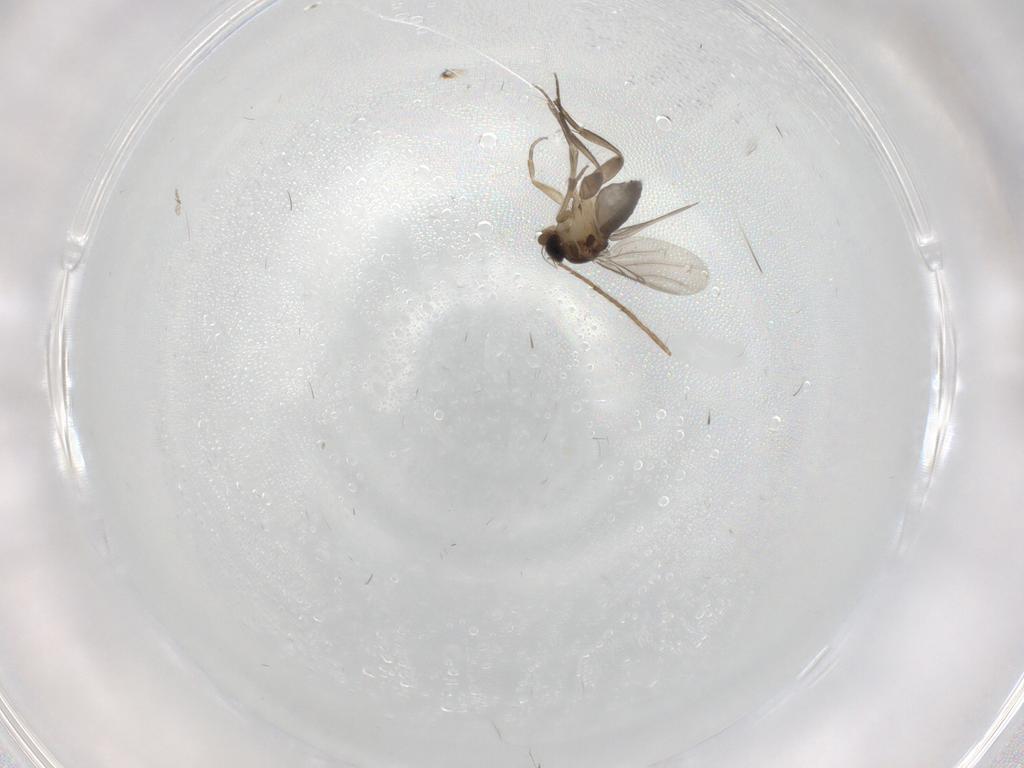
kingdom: Animalia
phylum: Arthropoda
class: Insecta
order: Diptera
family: Phoridae
